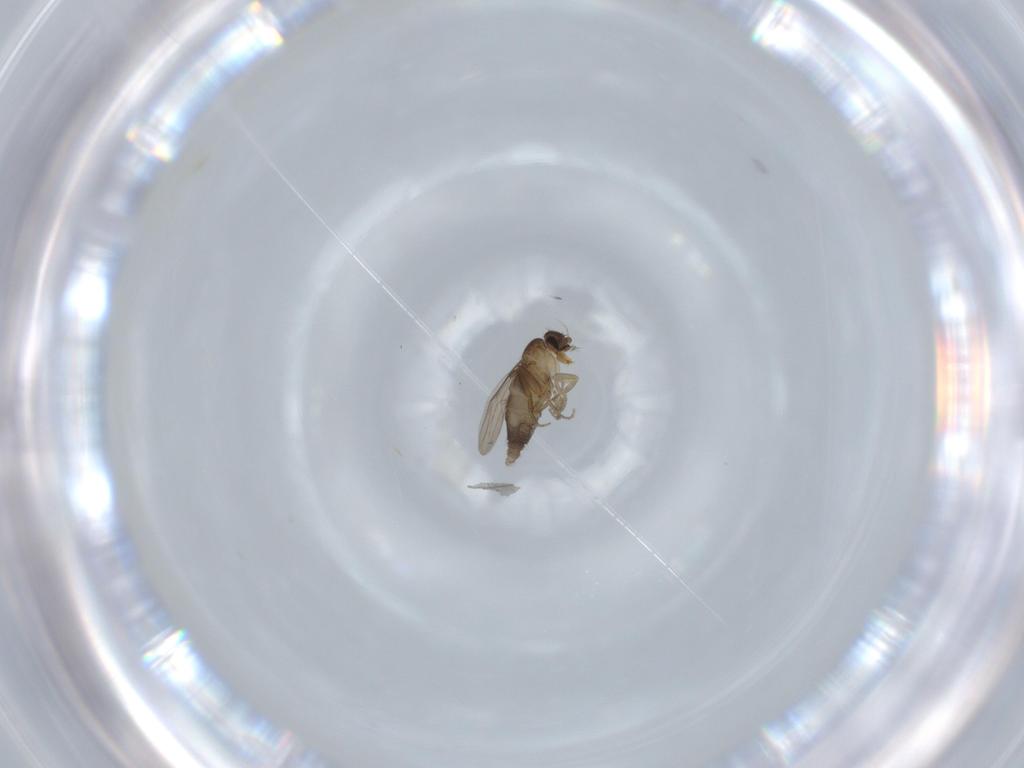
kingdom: Animalia
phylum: Arthropoda
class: Insecta
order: Diptera
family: Phoridae
